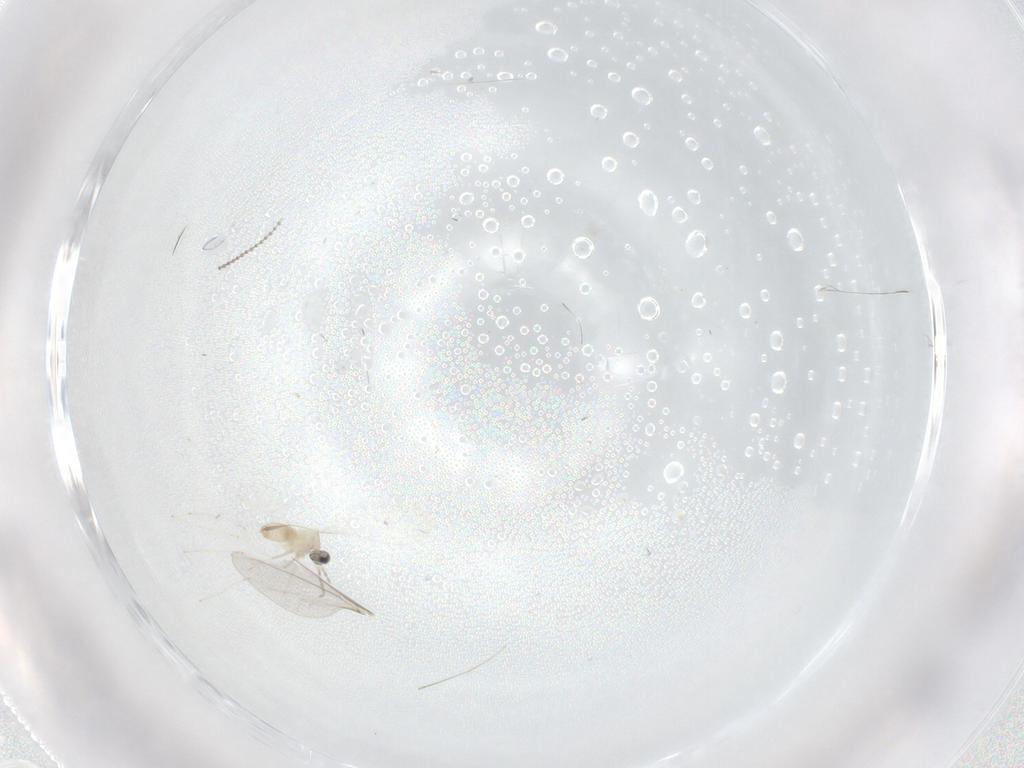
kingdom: Animalia
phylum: Arthropoda
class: Insecta
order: Diptera
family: Cecidomyiidae
